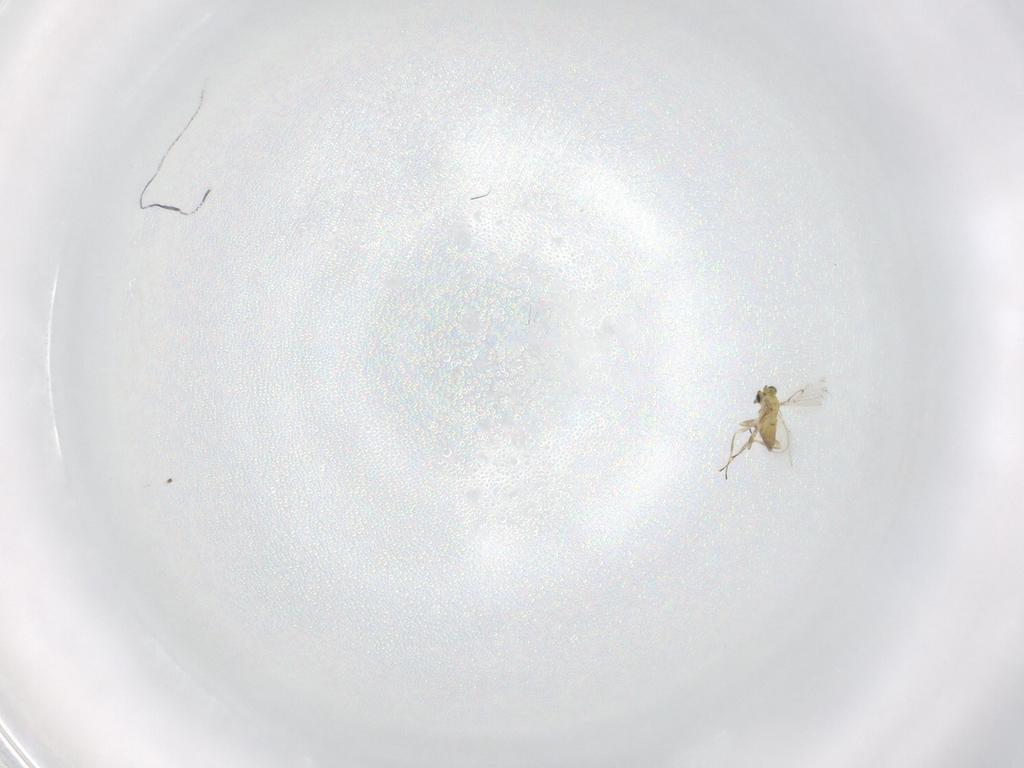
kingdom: Animalia
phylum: Arthropoda
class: Insecta
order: Hymenoptera
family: Trichogrammatidae
